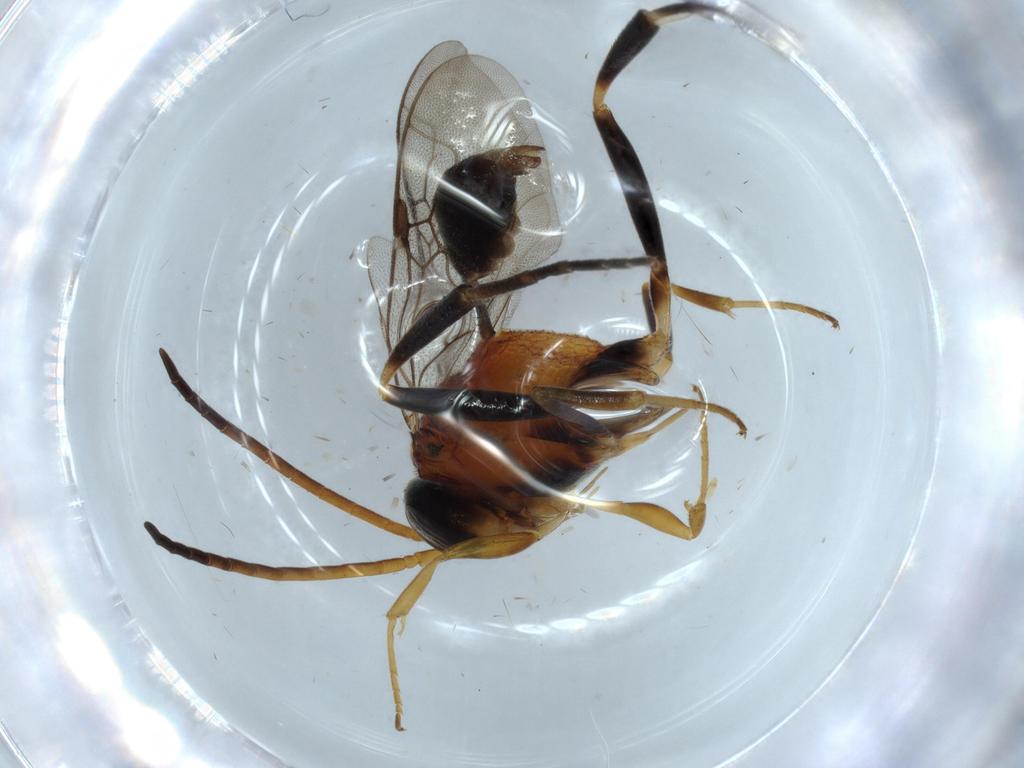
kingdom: Animalia
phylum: Arthropoda
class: Insecta
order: Hymenoptera
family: Evaniidae
